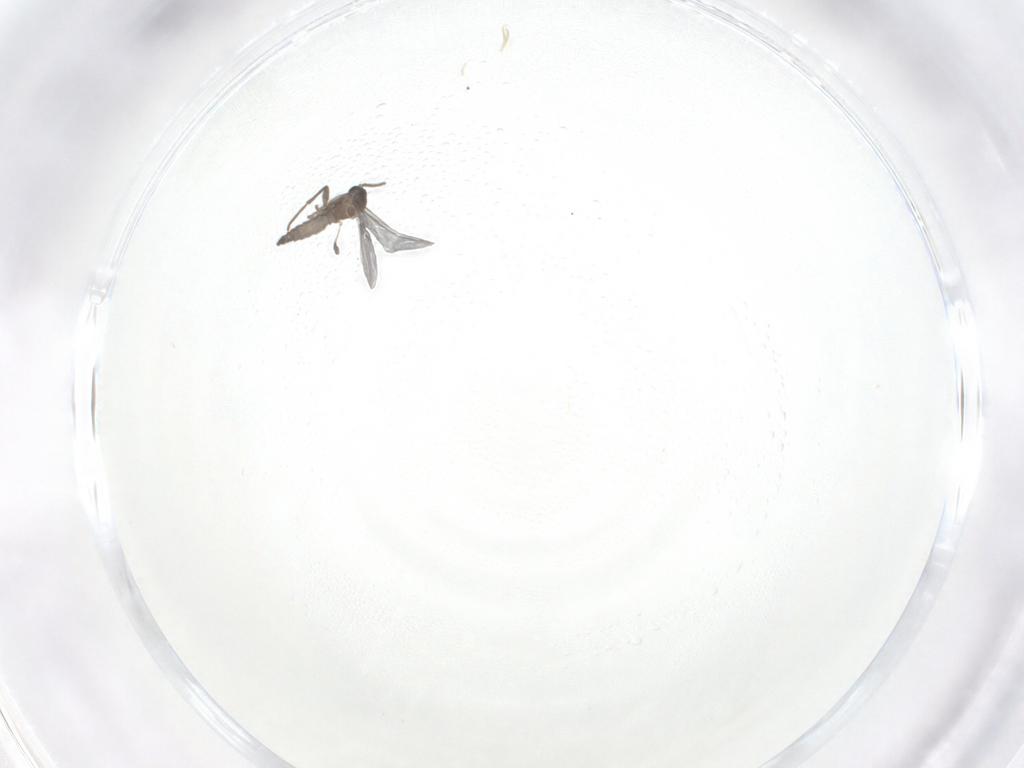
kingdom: Animalia
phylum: Arthropoda
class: Insecta
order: Diptera
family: Sciaridae
